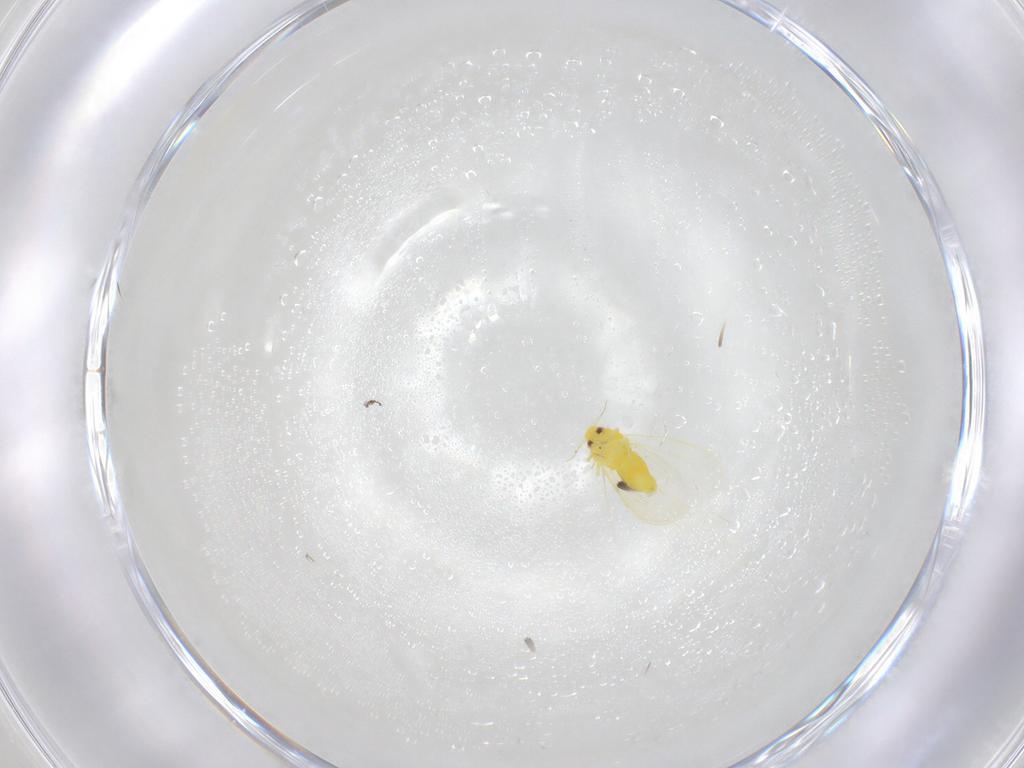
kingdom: Animalia
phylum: Arthropoda
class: Insecta
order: Hemiptera
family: Aleyrodidae
